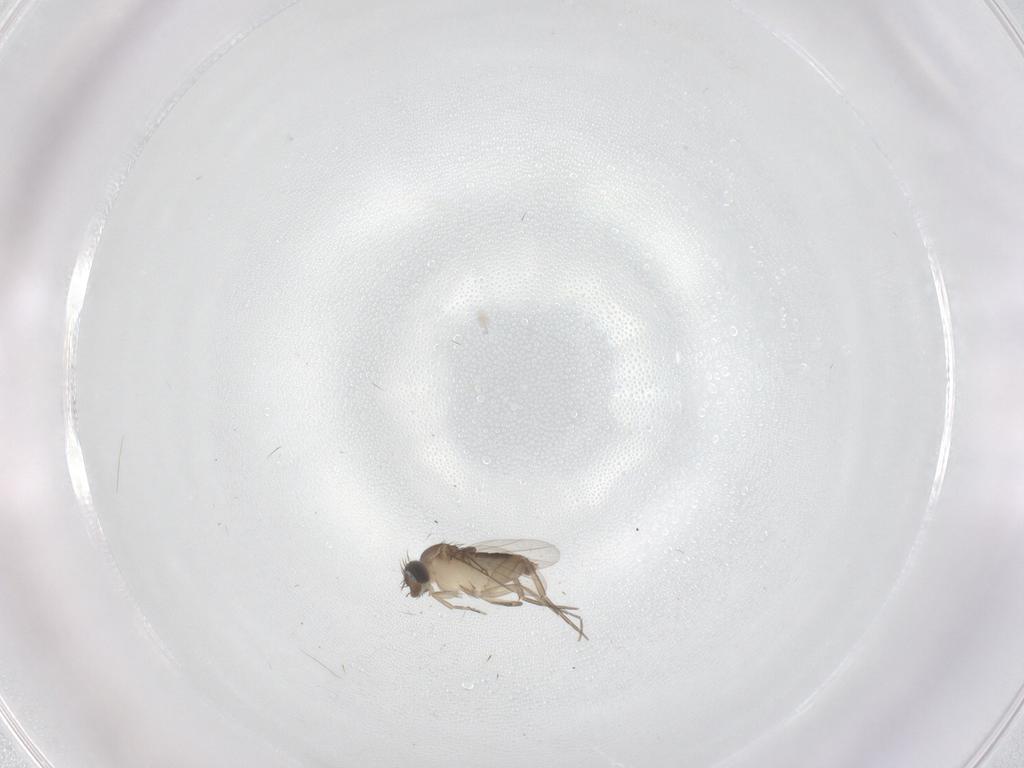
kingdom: Animalia
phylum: Arthropoda
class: Insecta
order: Diptera
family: Phoridae
